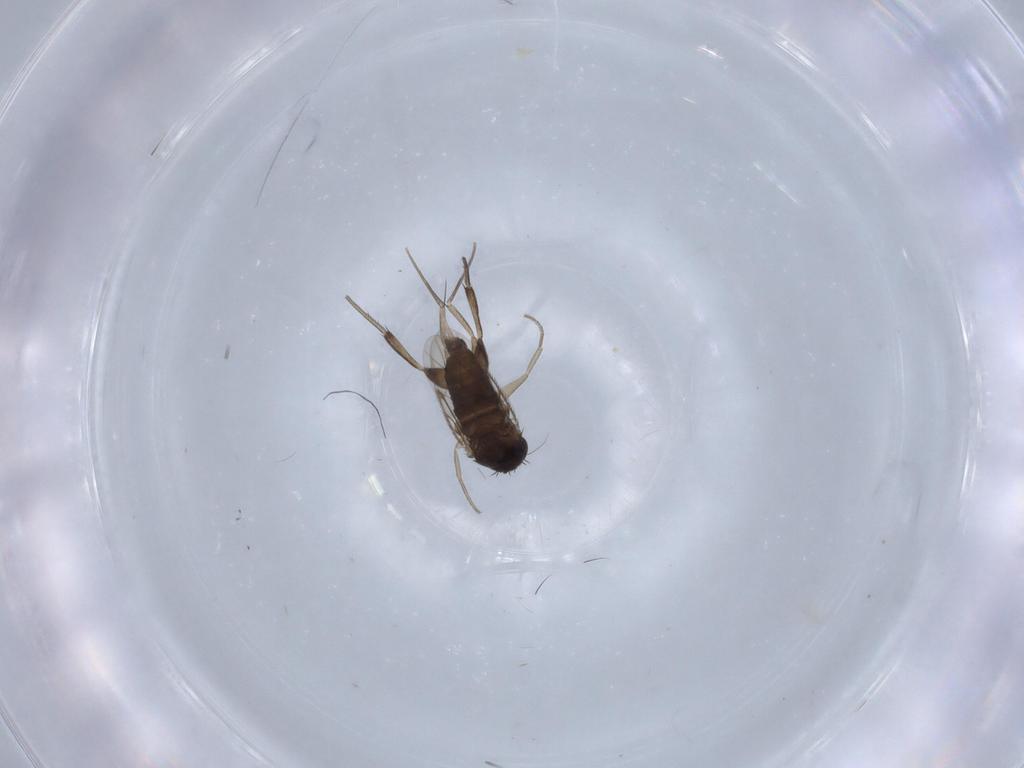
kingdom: Animalia
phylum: Arthropoda
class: Insecta
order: Diptera
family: Phoridae
